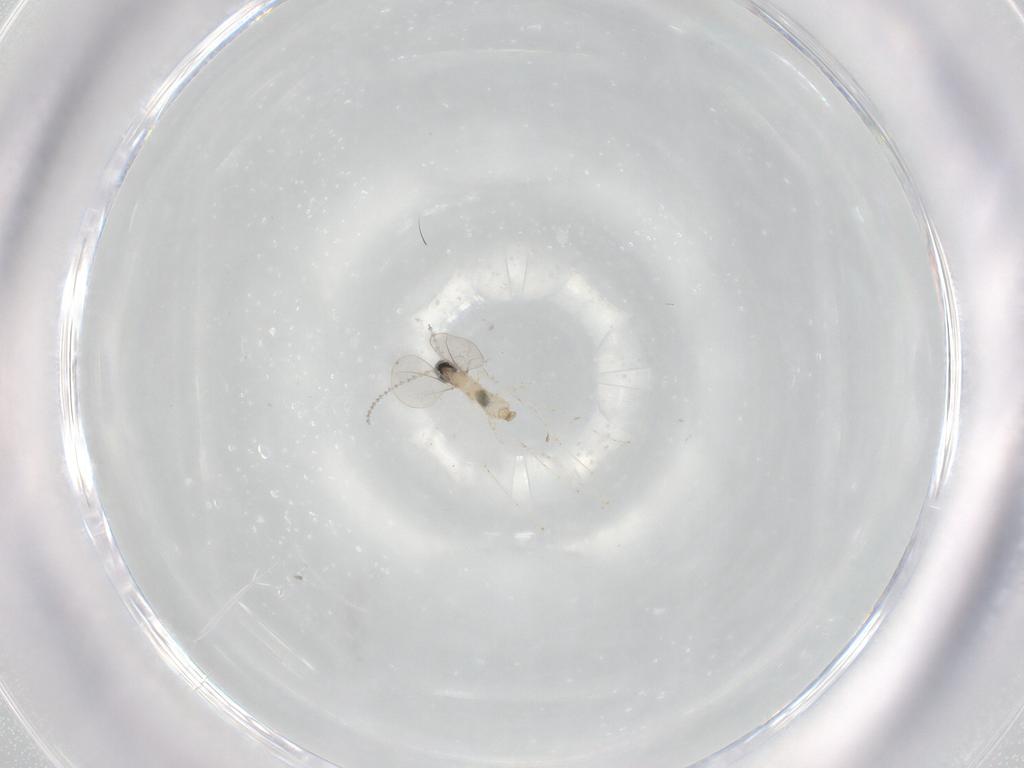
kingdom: Animalia
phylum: Arthropoda
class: Insecta
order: Diptera
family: Cecidomyiidae
